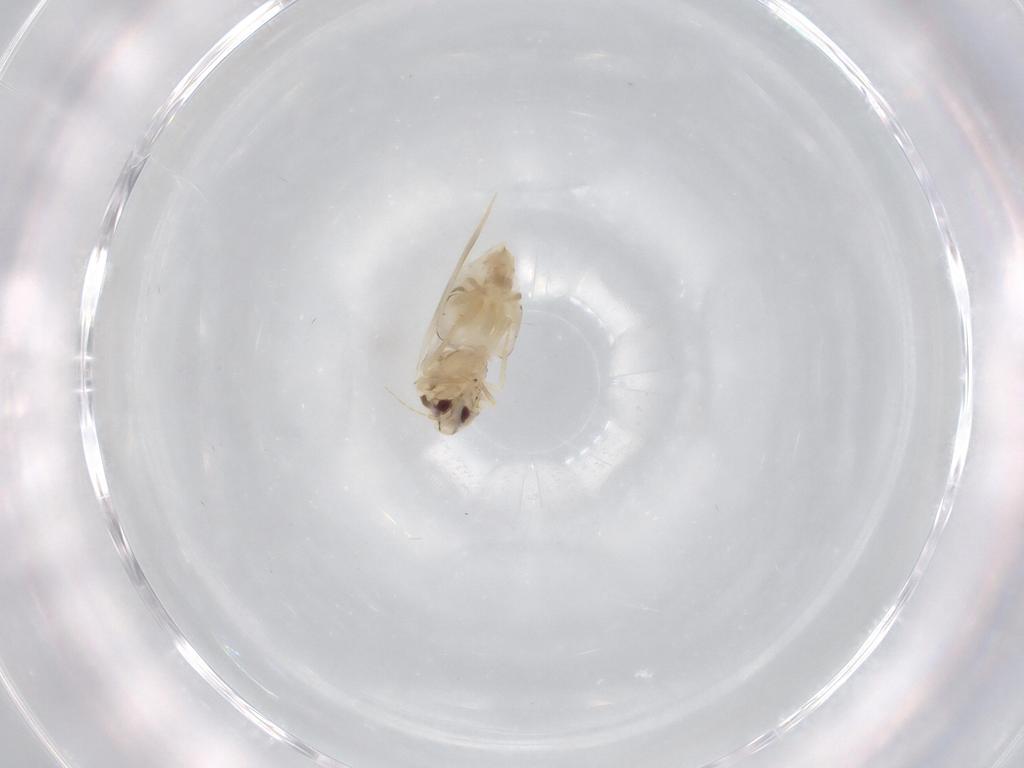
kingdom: Animalia
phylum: Arthropoda
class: Insecta
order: Hemiptera
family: Aleyrodidae
